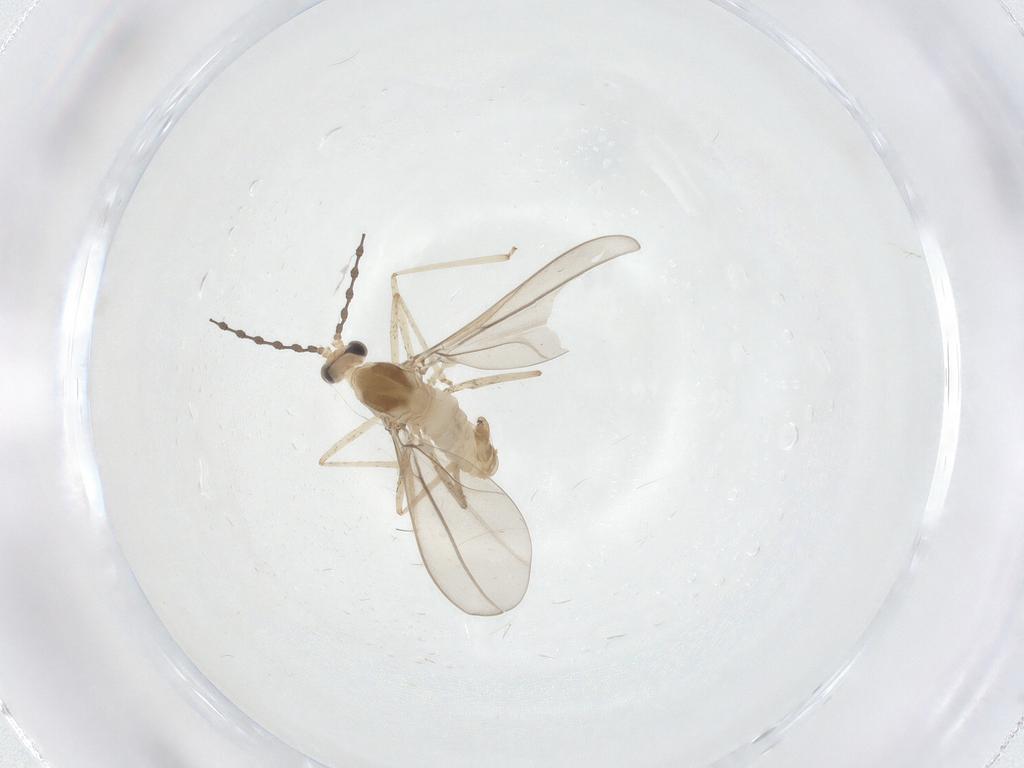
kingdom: Animalia
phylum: Arthropoda
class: Insecta
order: Diptera
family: Cecidomyiidae
